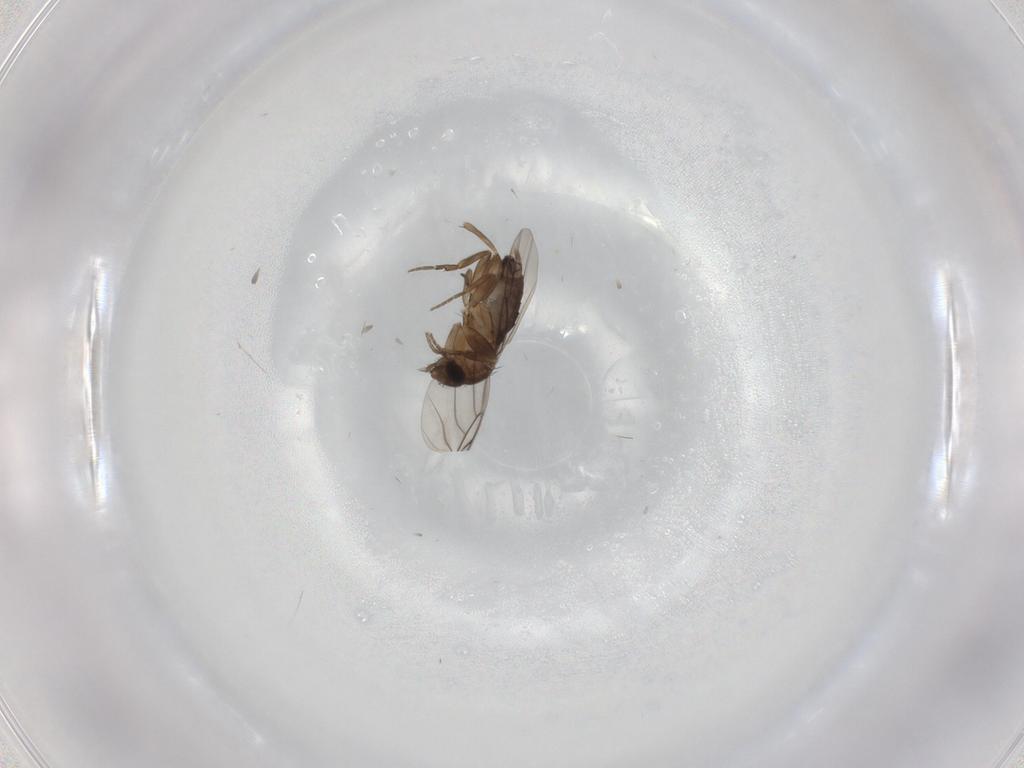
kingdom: Animalia
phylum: Arthropoda
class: Insecta
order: Diptera
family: Phoridae
